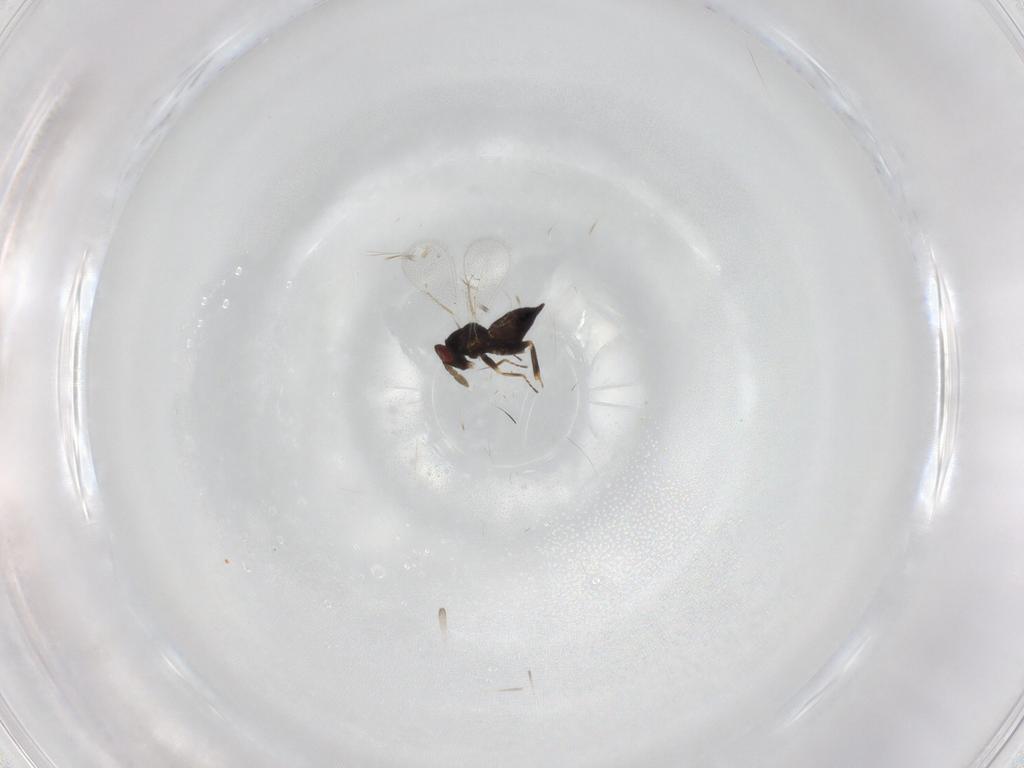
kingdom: Animalia
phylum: Arthropoda
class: Insecta
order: Hymenoptera
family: Eulophidae
